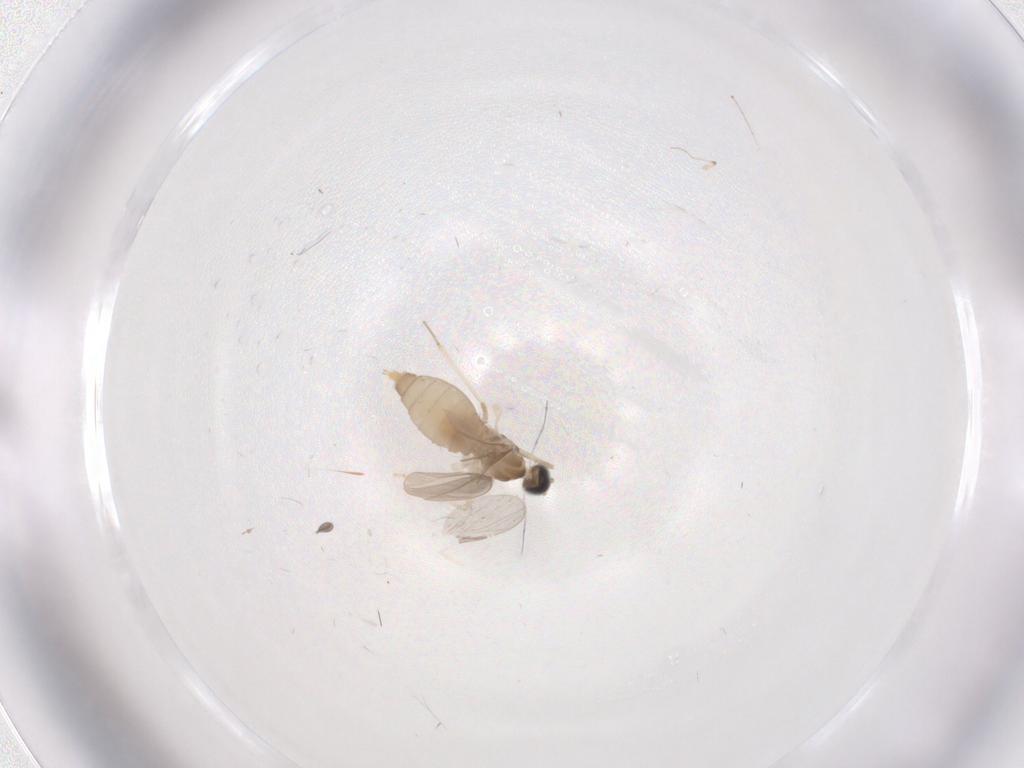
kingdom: Animalia
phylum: Arthropoda
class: Insecta
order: Diptera
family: Cecidomyiidae
